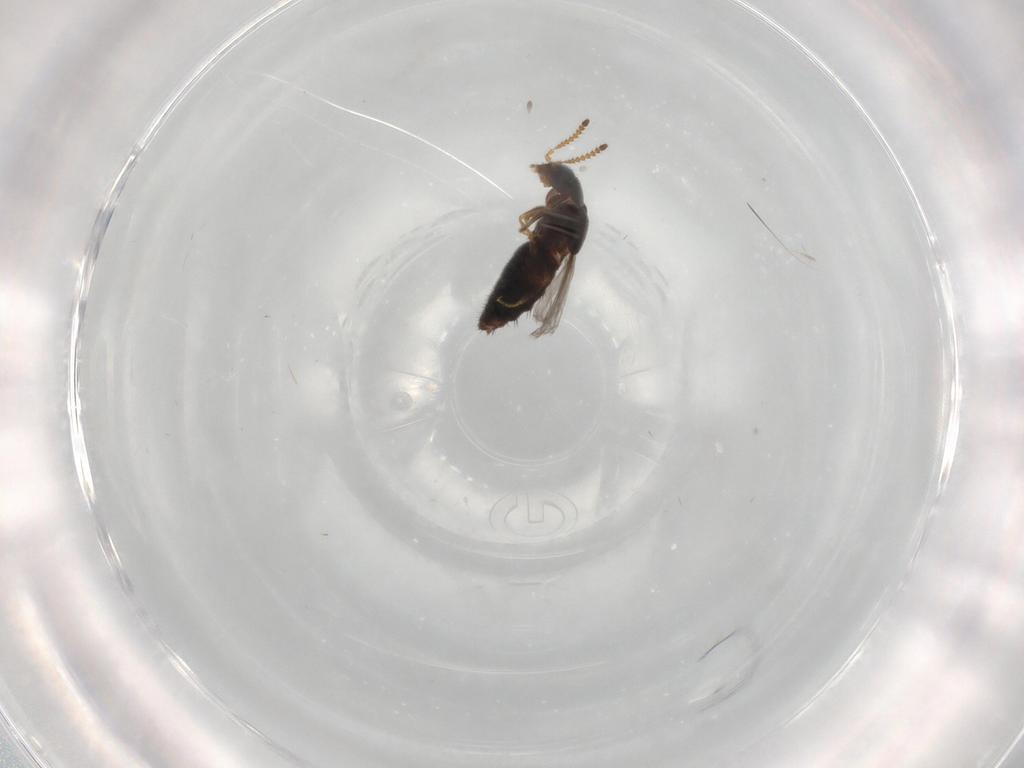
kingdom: Animalia
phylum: Arthropoda
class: Insecta
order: Coleoptera
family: Staphylinidae
